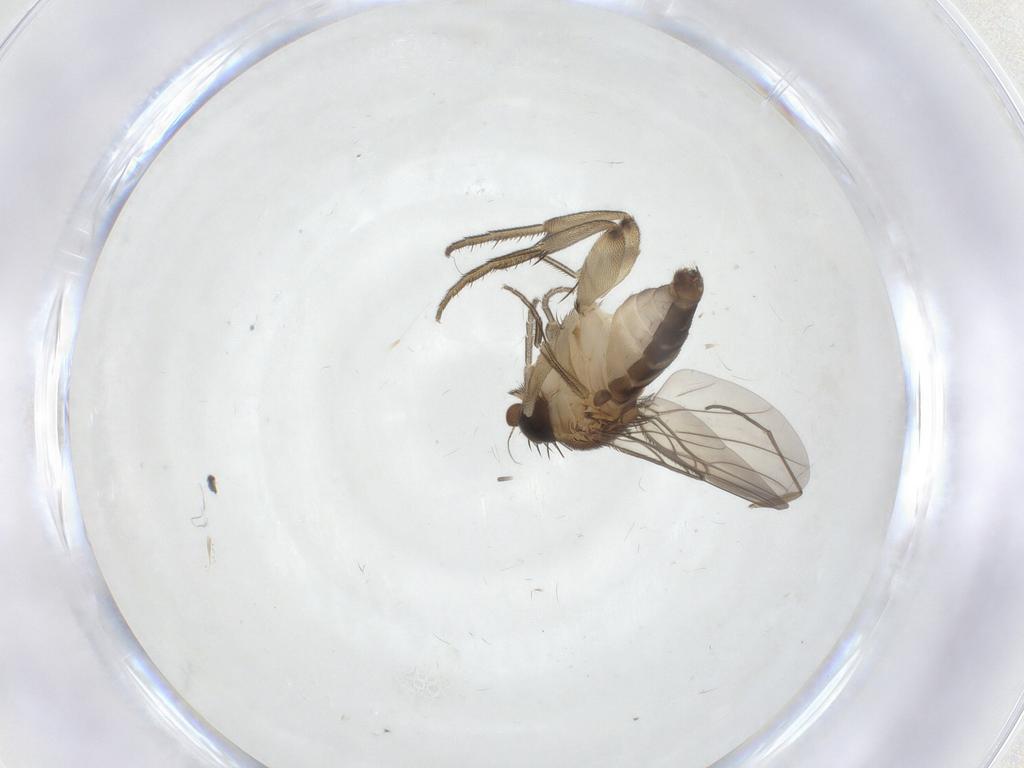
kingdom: Animalia
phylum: Arthropoda
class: Insecta
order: Diptera
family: Phoridae
